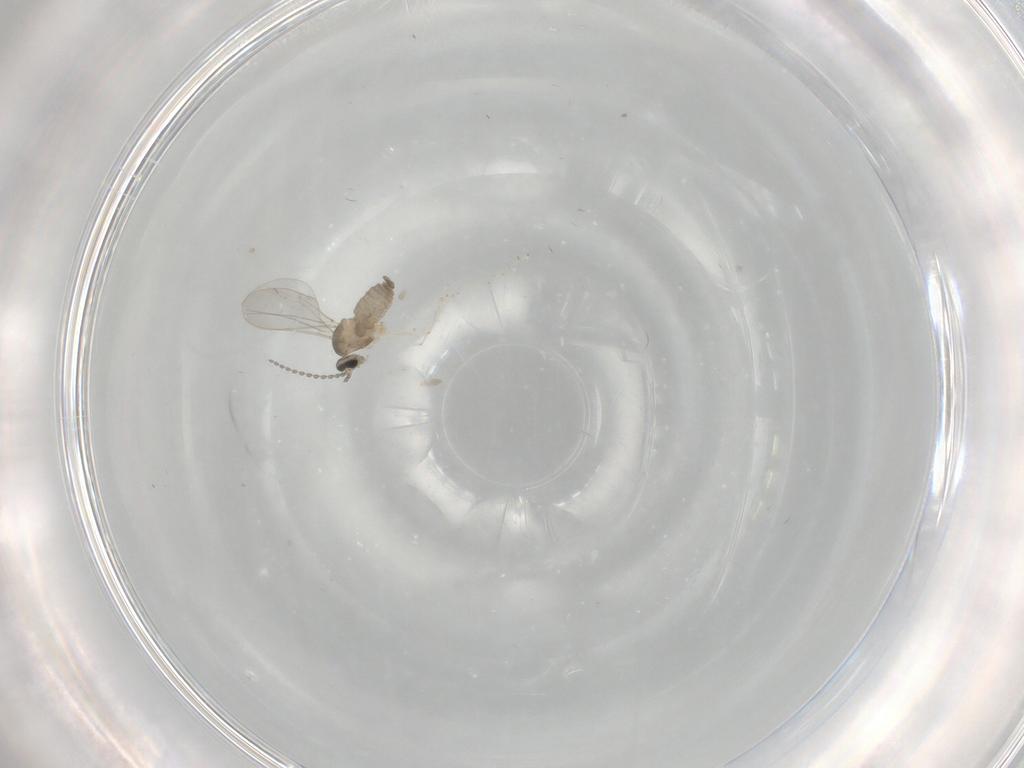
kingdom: Animalia
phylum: Arthropoda
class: Insecta
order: Diptera
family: Cecidomyiidae
